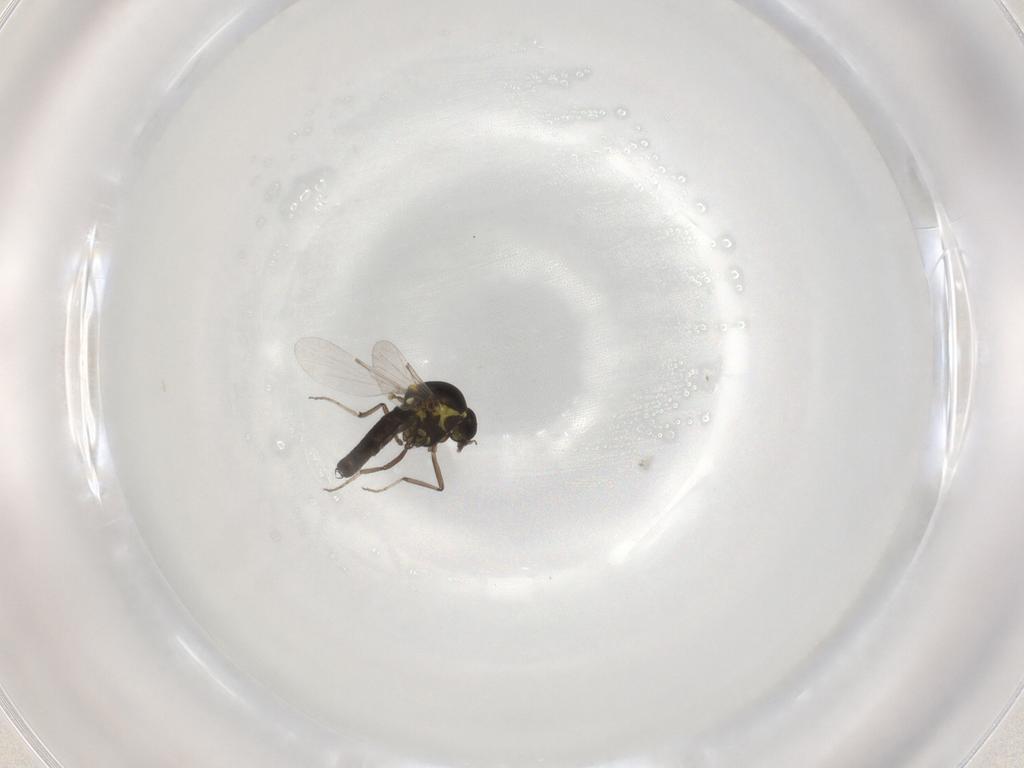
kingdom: Animalia
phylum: Arthropoda
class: Insecta
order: Diptera
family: Ceratopogonidae
